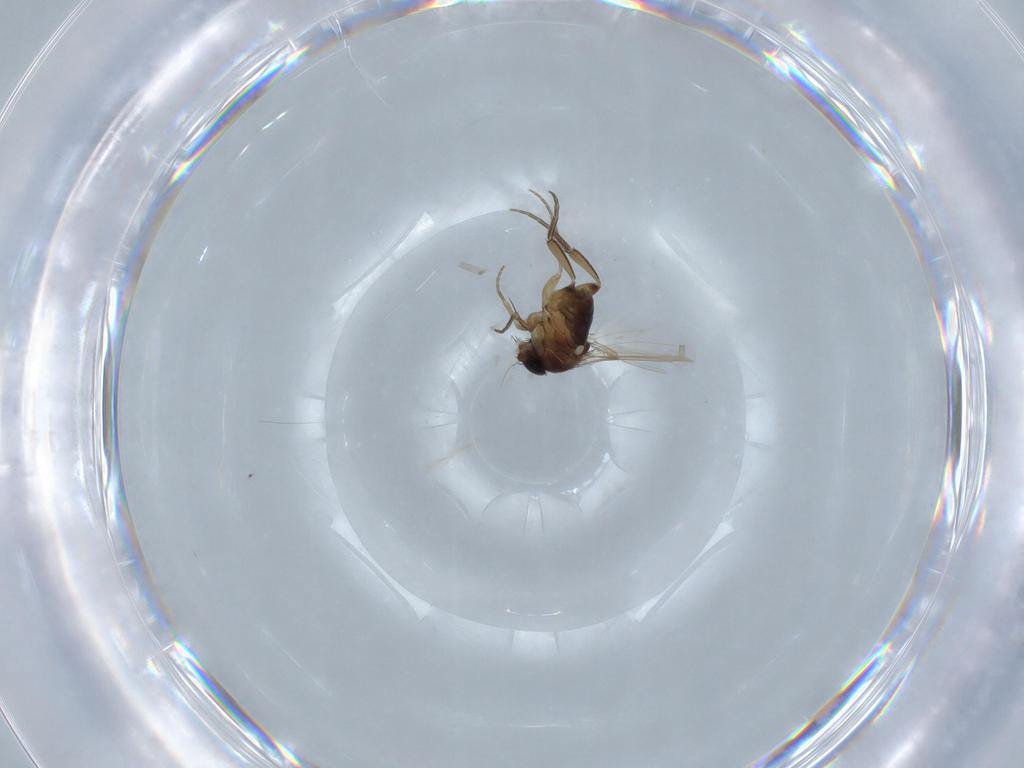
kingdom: Animalia
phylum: Arthropoda
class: Insecta
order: Diptera
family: Phoridae
